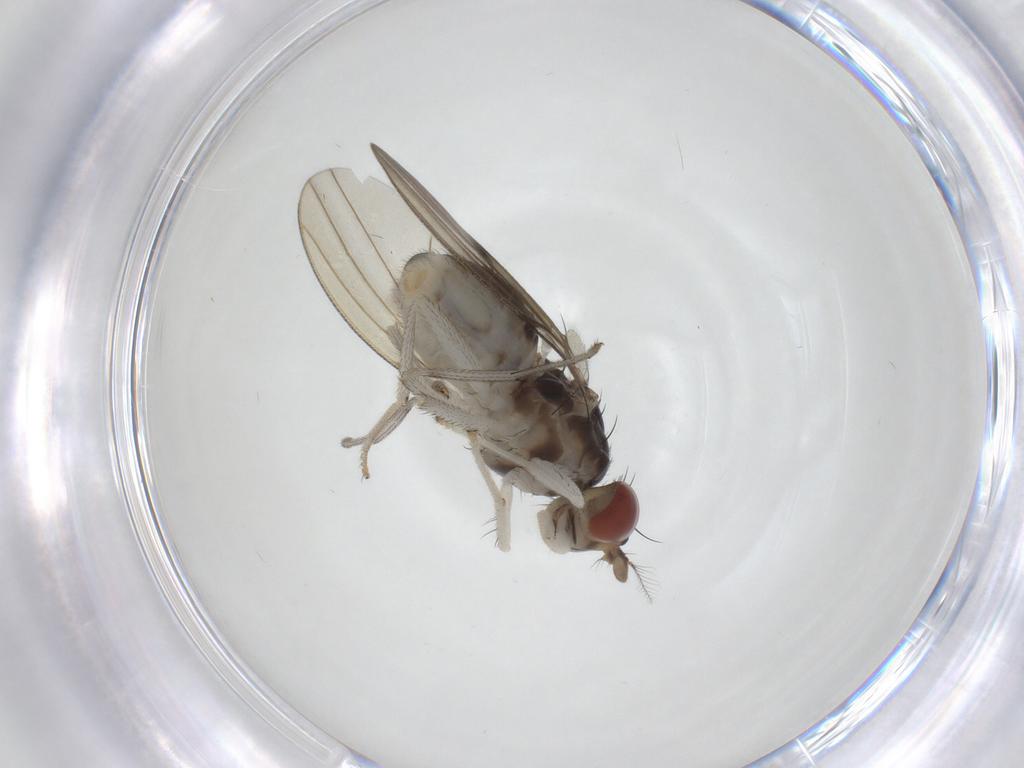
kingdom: Animalia
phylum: Arthropoda
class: Insecta
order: Diptera
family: Lauxaniidae
